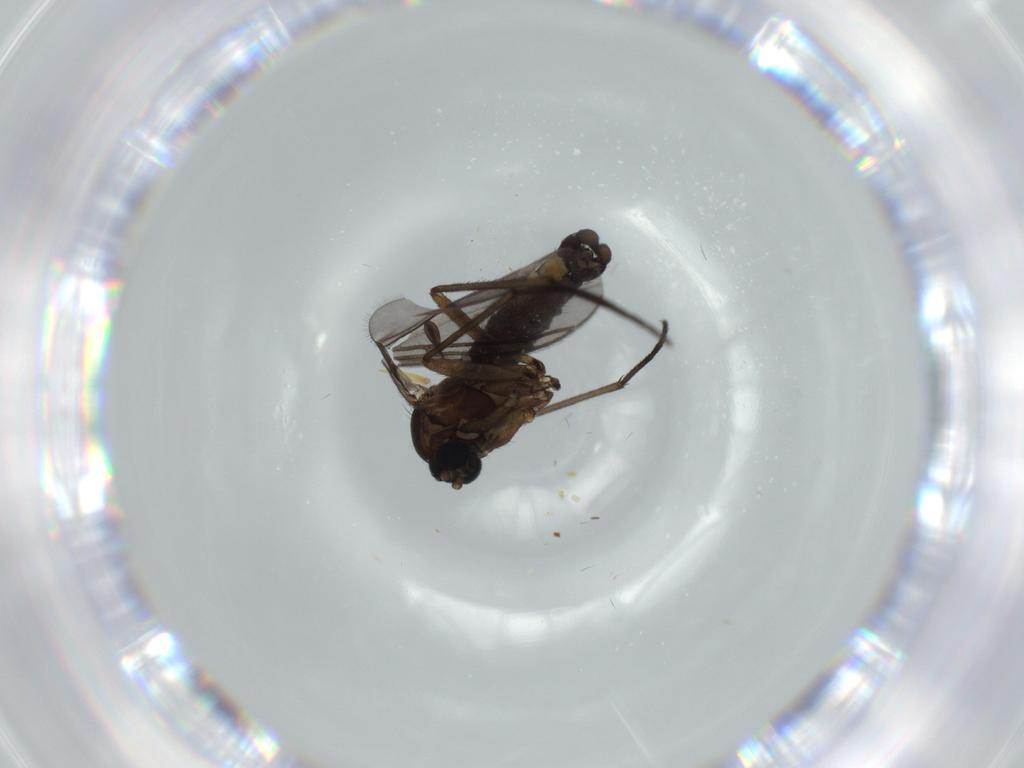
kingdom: Animalia
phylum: Arthropoda
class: Insecta
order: Diptera
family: Sciaridae
